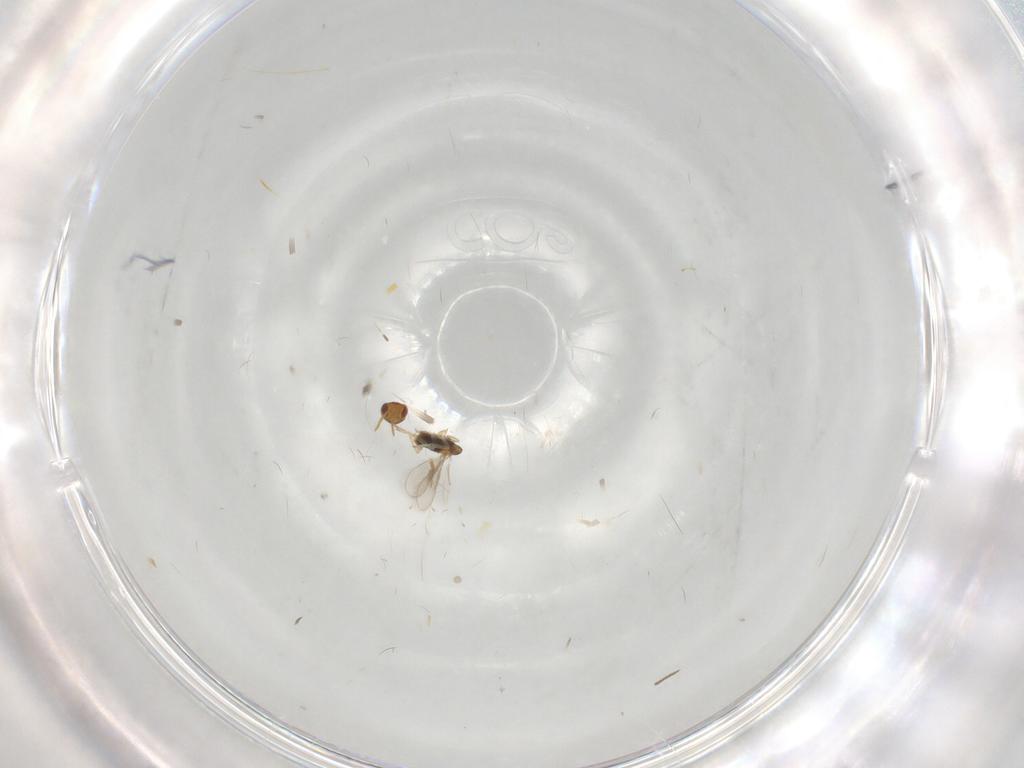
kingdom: Animalia
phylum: Arthropoda
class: Insecta
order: Hymenoptera
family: Aphelinidae
